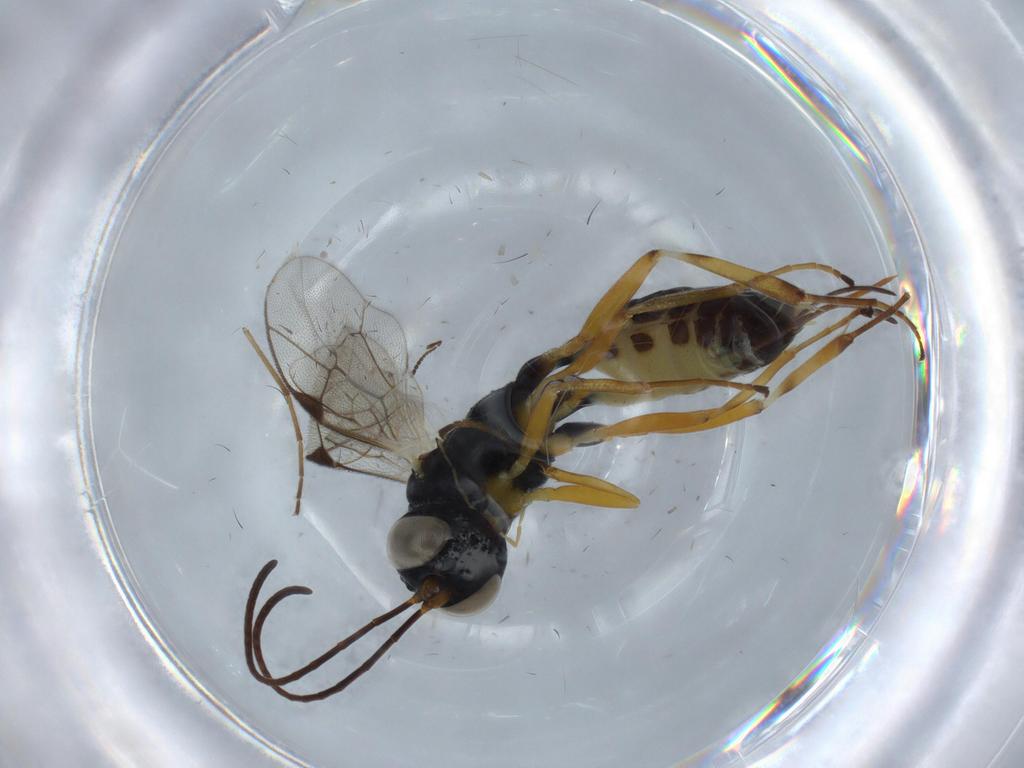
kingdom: Animalia
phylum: Arthropoda
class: Insecta
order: Hymenoptera
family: Ichneumonidae
